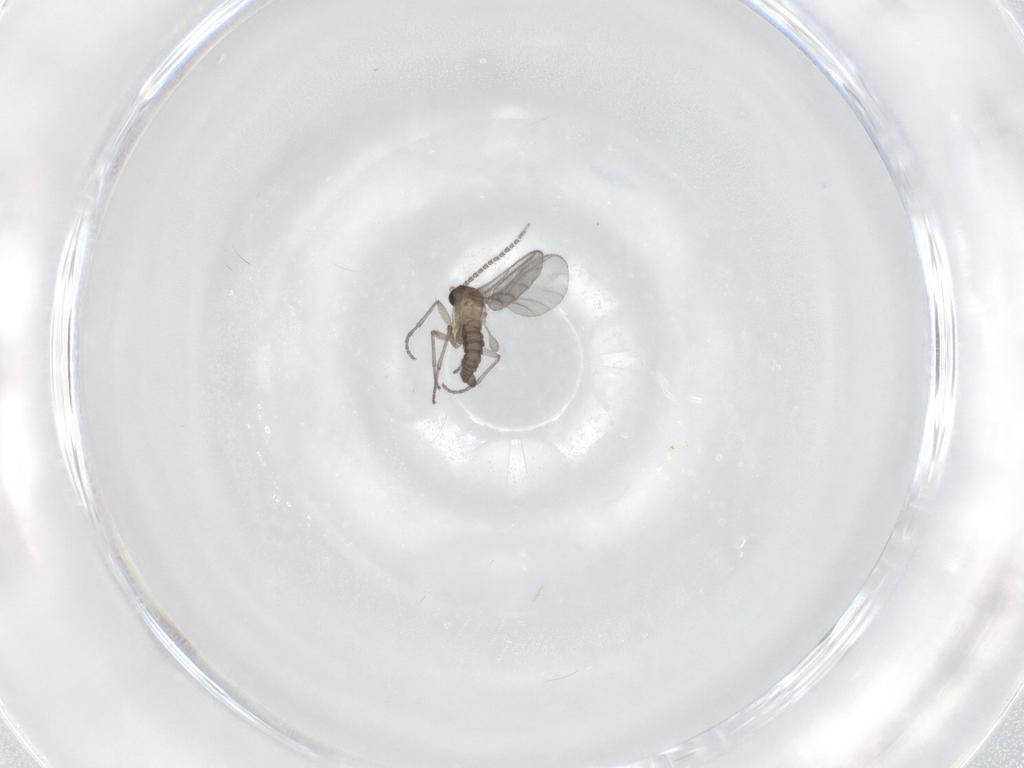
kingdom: Animalia
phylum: Arthropoda
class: Insecta
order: Diptera
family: Sciaridae
